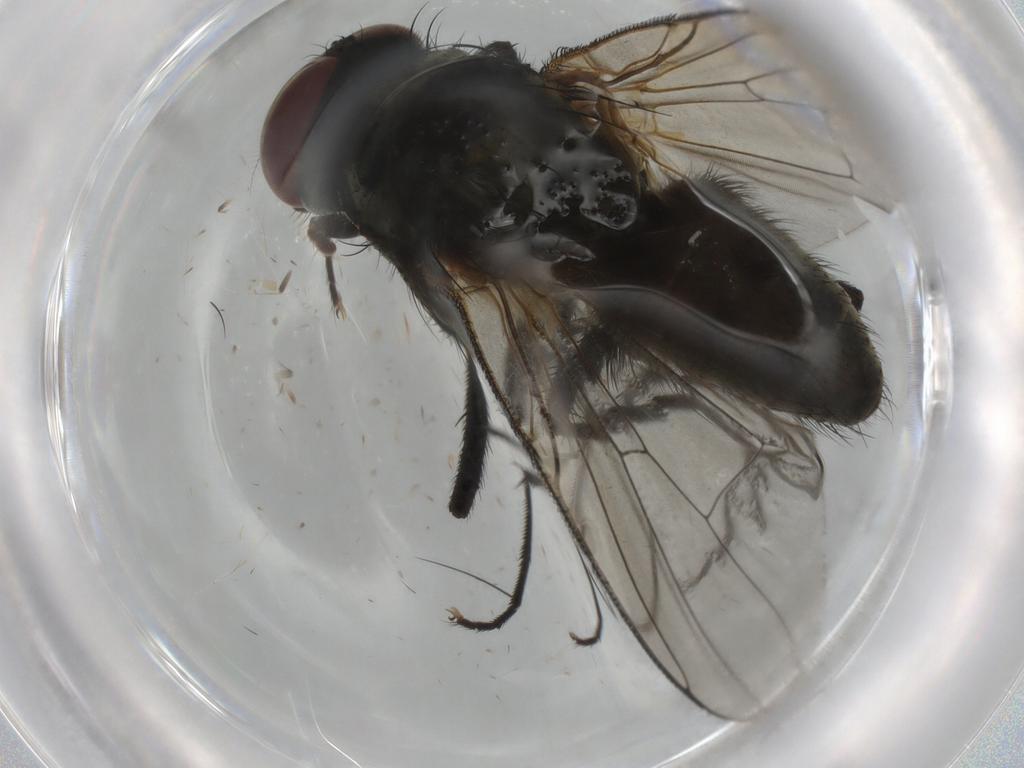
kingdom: Animalia
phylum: Arthropoda
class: Insecta
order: Diptera
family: Muscidae
